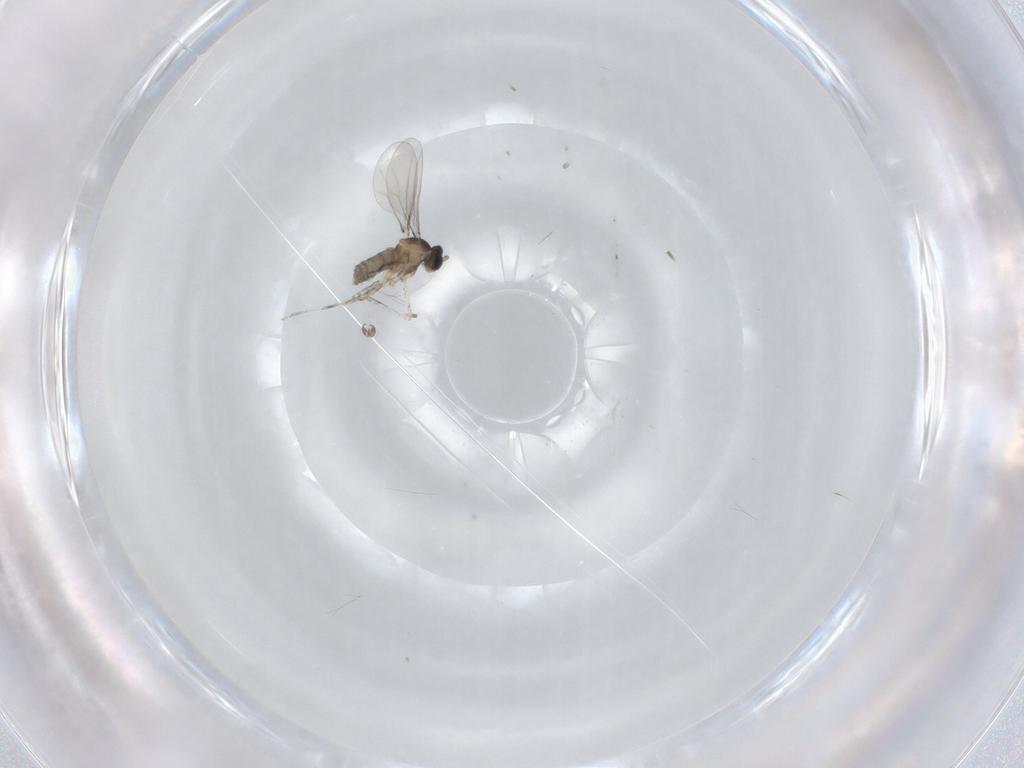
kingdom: Animalia
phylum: Arthropoda
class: Insecta
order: Diptera
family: Cecidomyiidae
